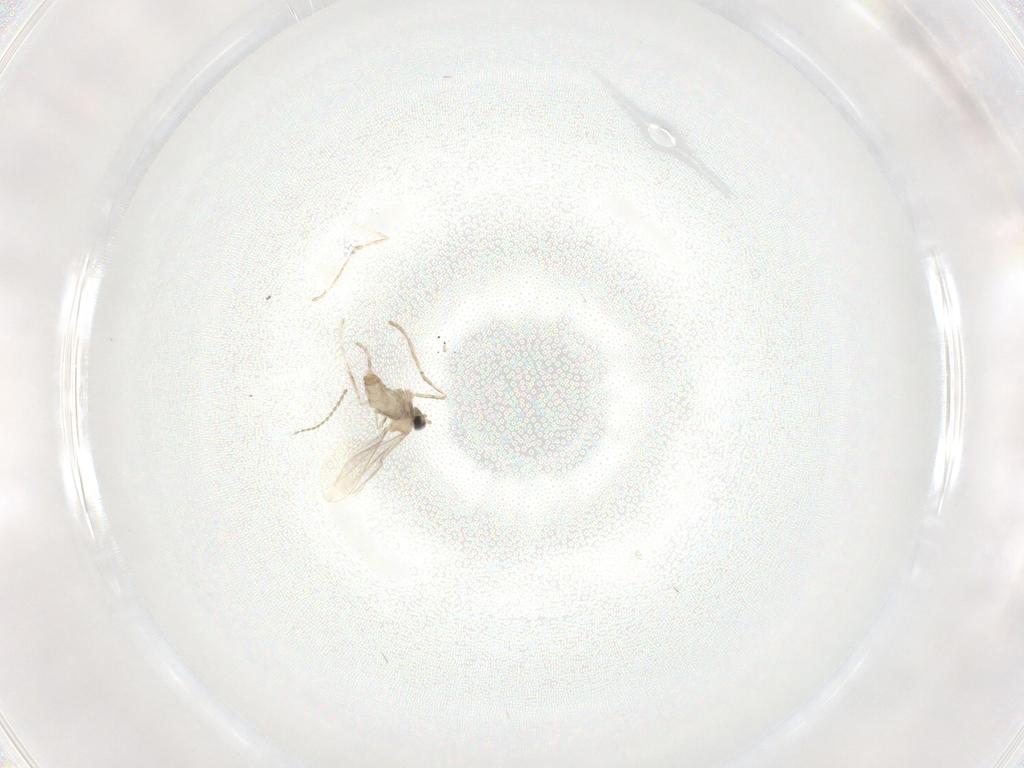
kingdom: Animalia
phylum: Arthropoda
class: Insecta
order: Diptera
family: Cecidomyiidae
